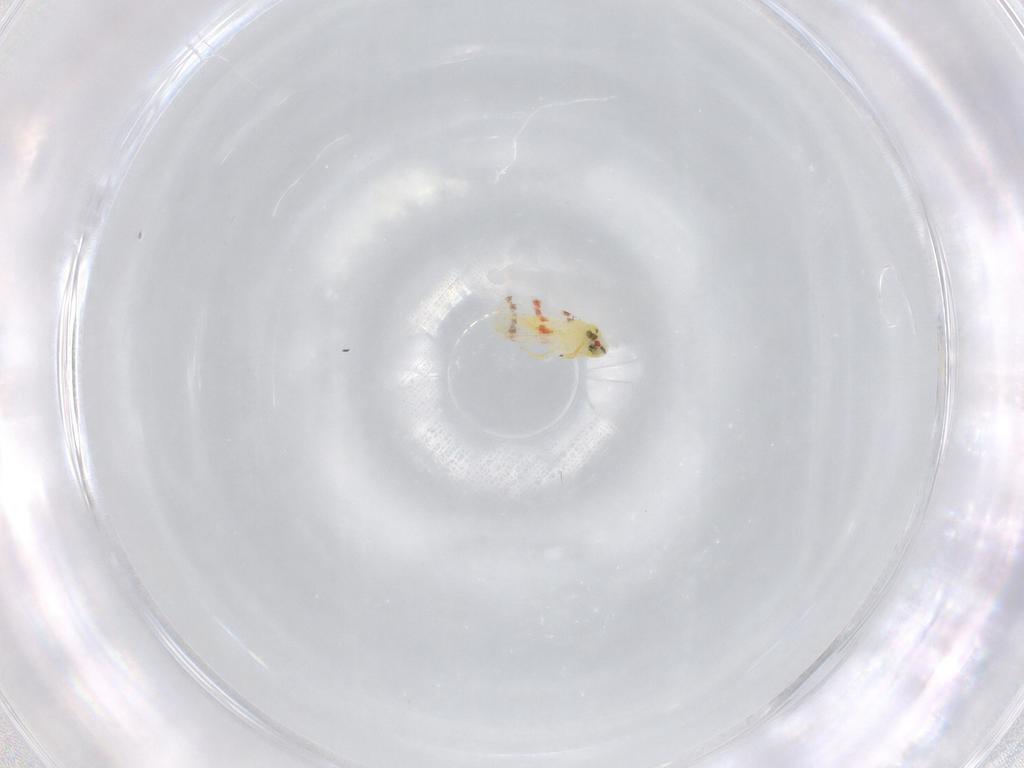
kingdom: Animalia
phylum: Arthropoda
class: Insecta
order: Hemiptera
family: Aleyrodidae
